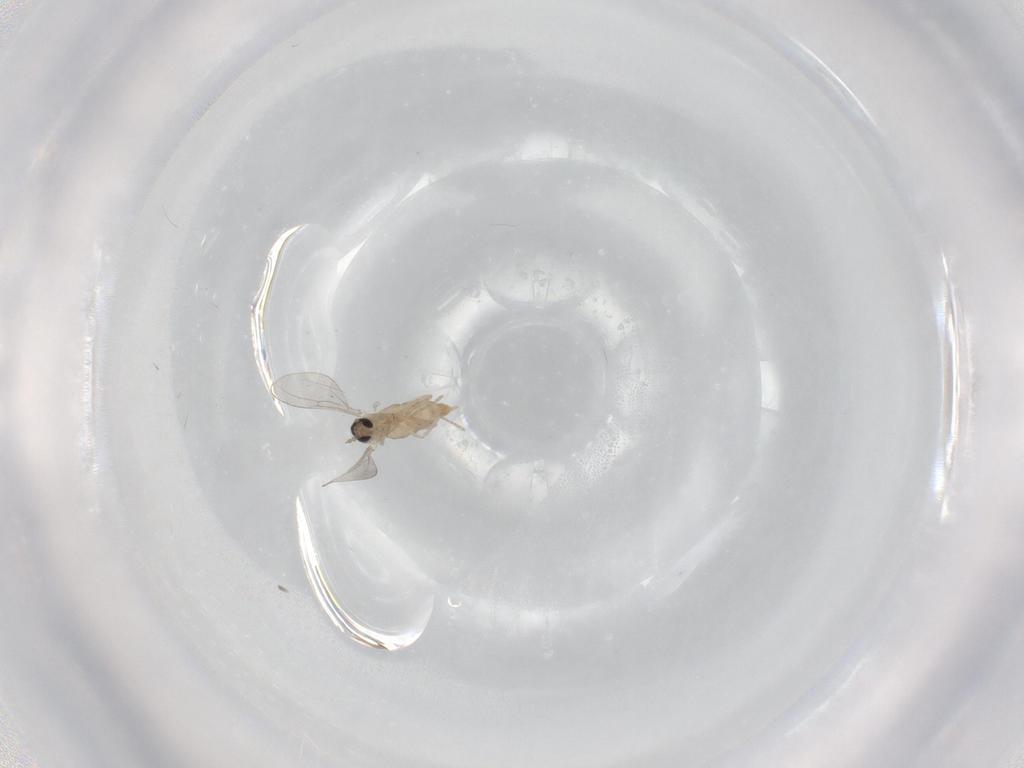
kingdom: Animalia
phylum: Arthropoda
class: Insecta
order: Diptera
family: Cecidomyiidae
